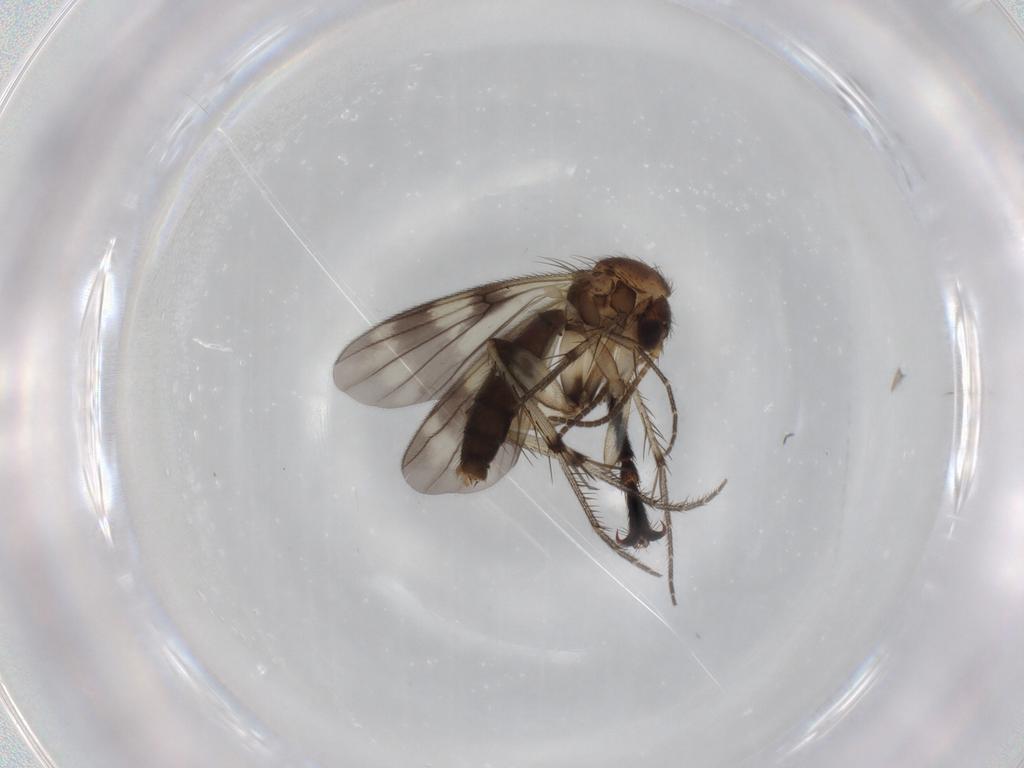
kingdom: Animalia
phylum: Arthropoda
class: Insecta
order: Diptera
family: Mycetophilidae
